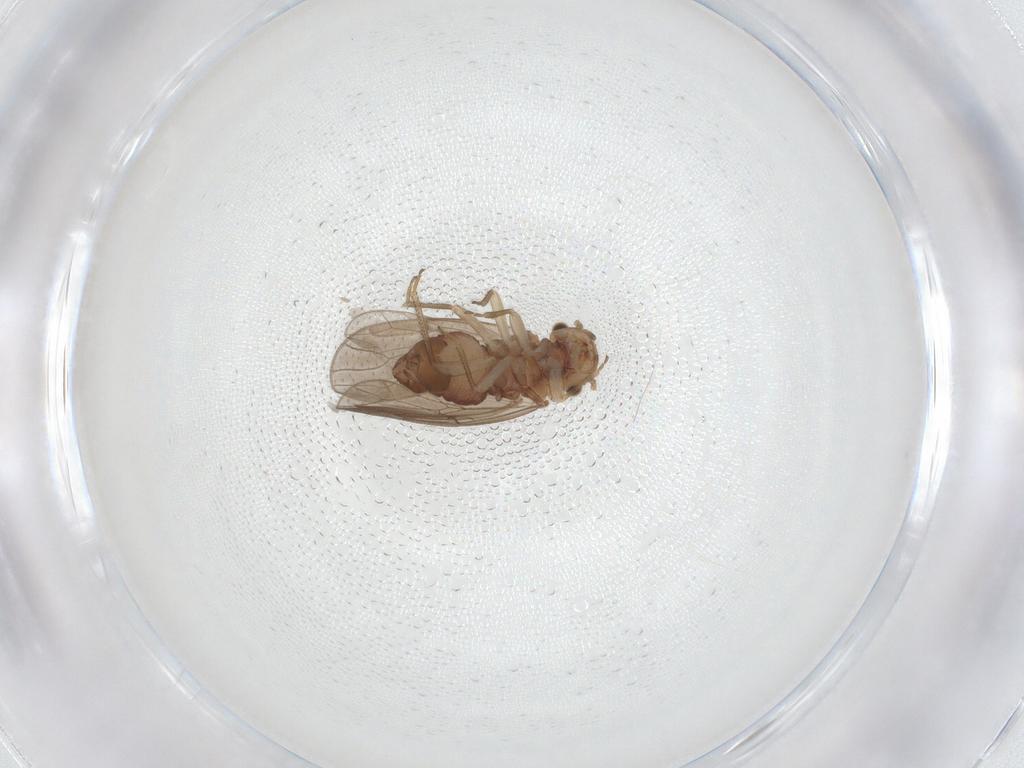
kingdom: Animalia
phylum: Arthropoda
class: Insecta
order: Psocodea
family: Ectopsocidae
